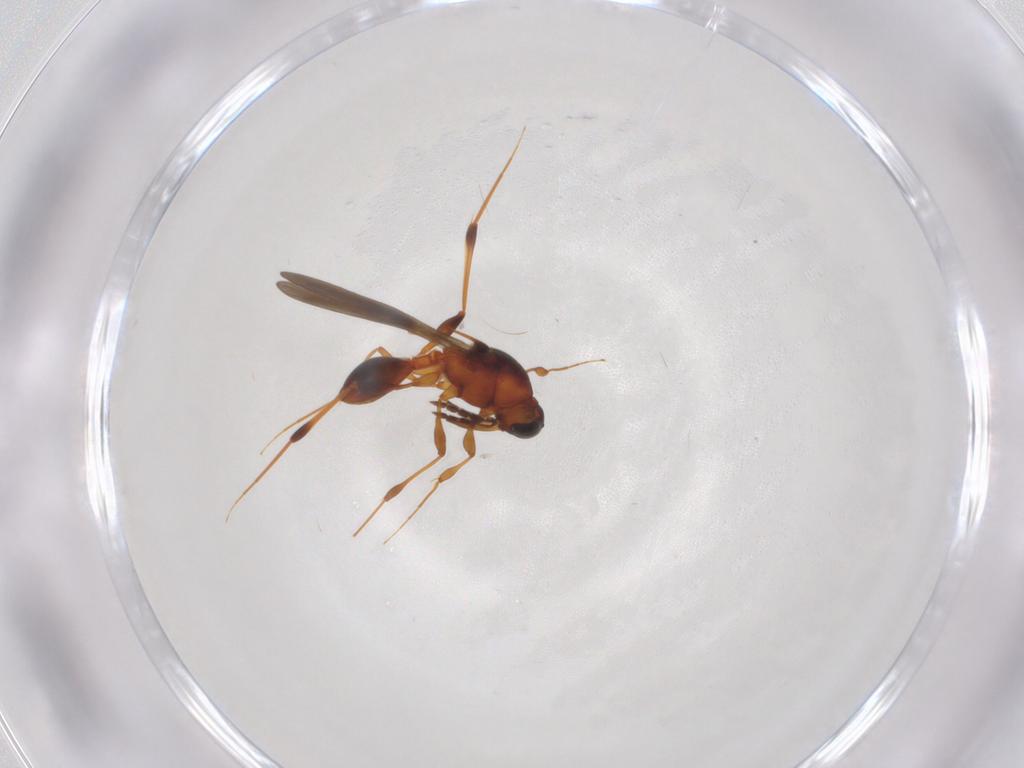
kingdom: Animalia
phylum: Arthropoda
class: Insecta
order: Hymenoptera
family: Platygastridae
